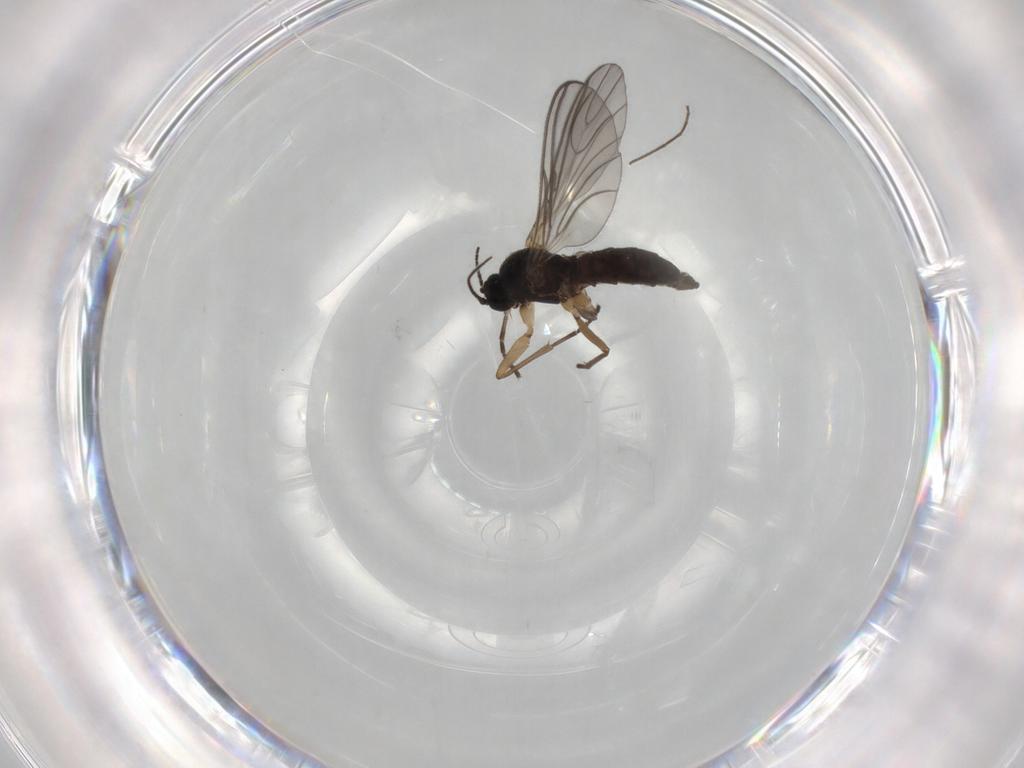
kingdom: Animalia
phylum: Arthropoda
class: Insecta
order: Diptera
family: Sciaridae
